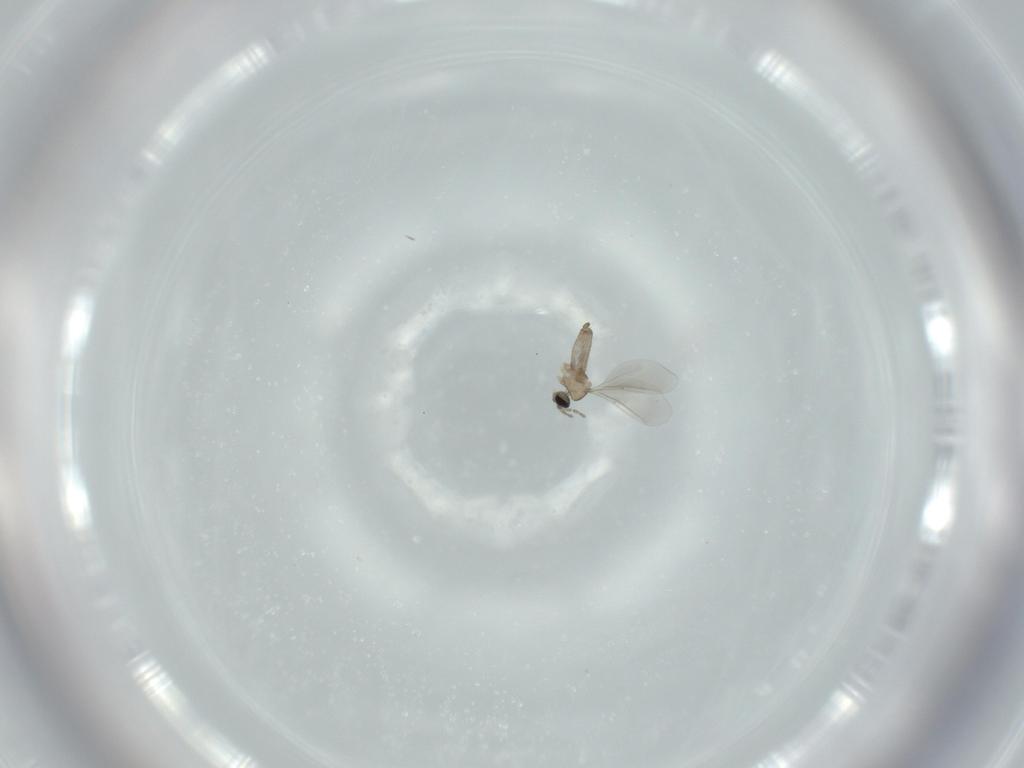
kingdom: Animalia
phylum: Arthropoda
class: Insecta
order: Diptera
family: Cecidomyiidae
